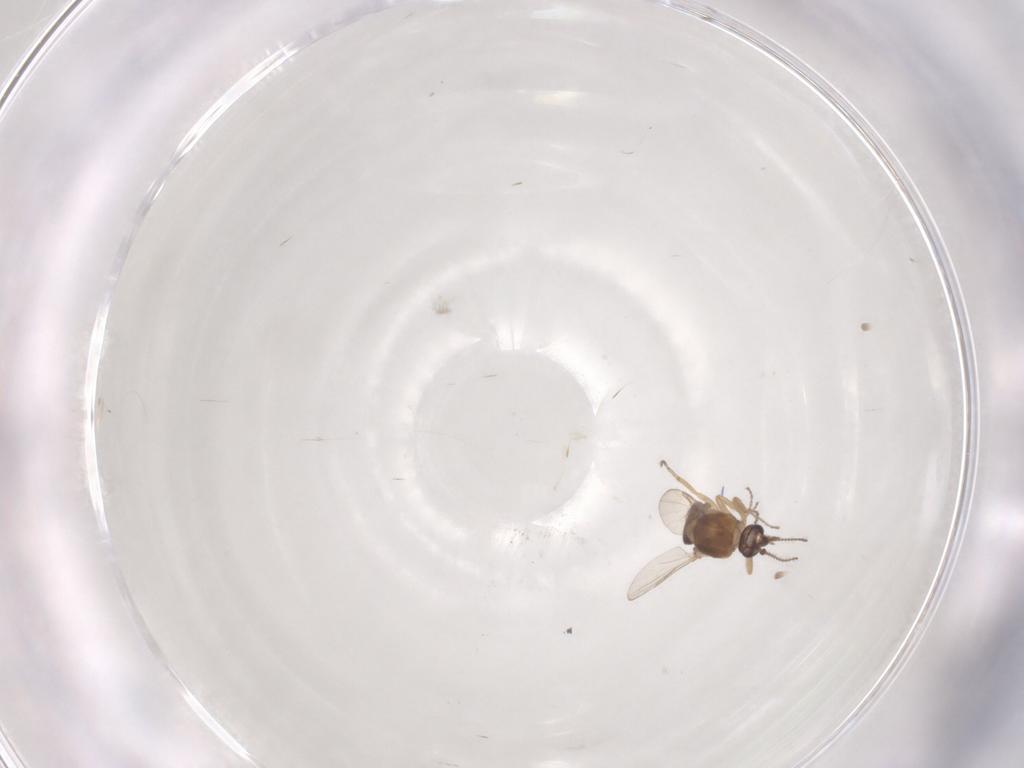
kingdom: Animalia
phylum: Arthropoda
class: Insecta
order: Diptera
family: Ceratopogonidae
